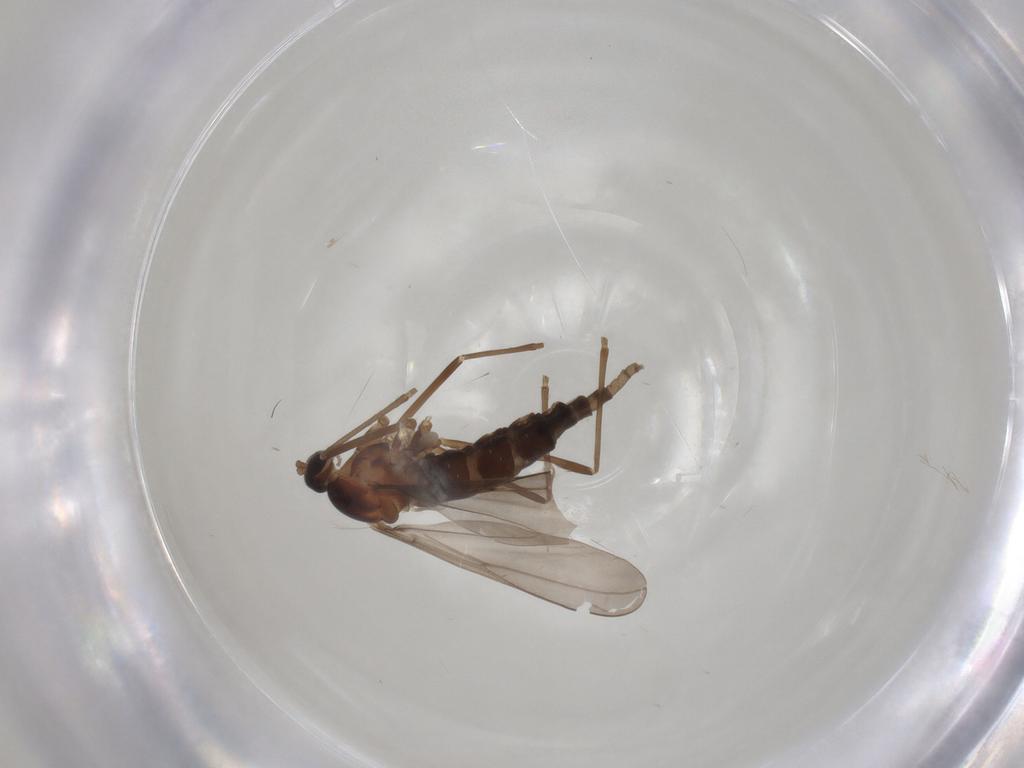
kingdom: Animalia
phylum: Arthropoda
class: Insecta
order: Diptera
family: Cecidomyiidae
